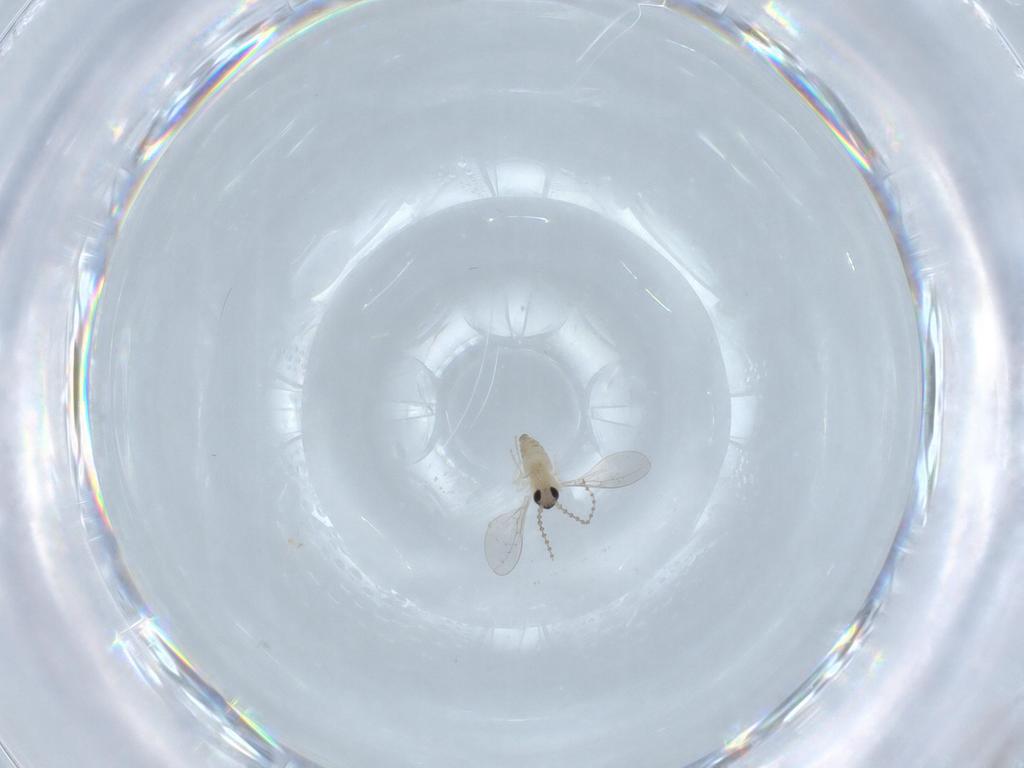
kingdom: Animalia
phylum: Arthropoda
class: Insecta
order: Diptera
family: Cecidomyiidae
